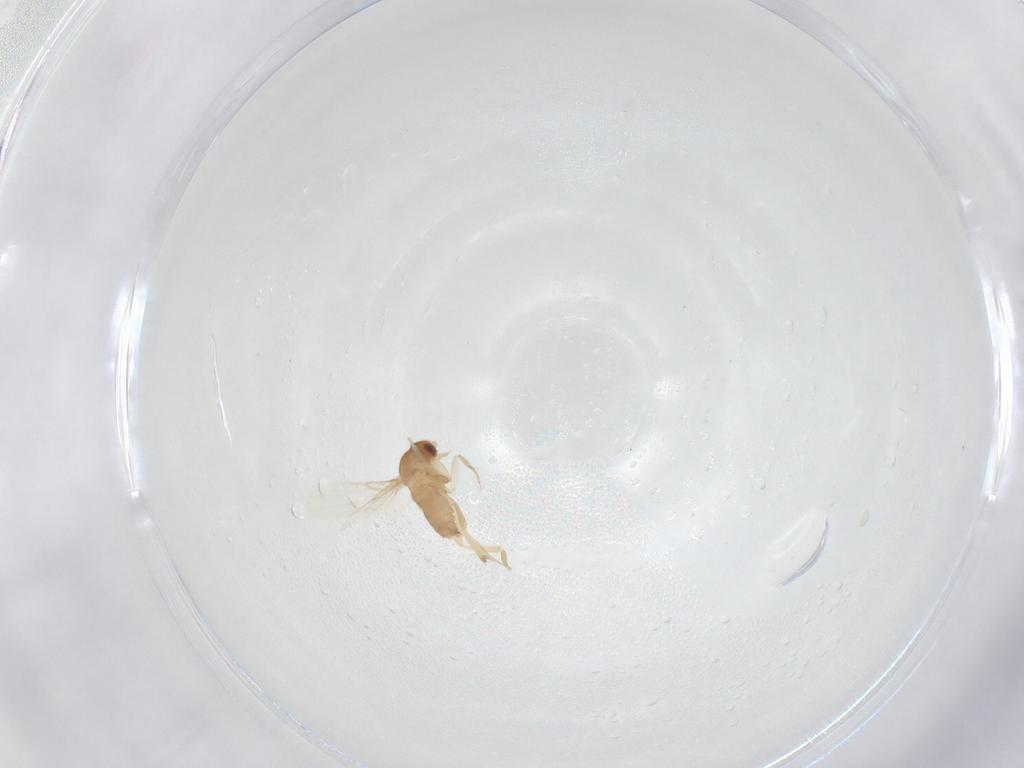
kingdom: Animalia
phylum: Arthropoda
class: Insecta
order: Diptera
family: Phoridae
